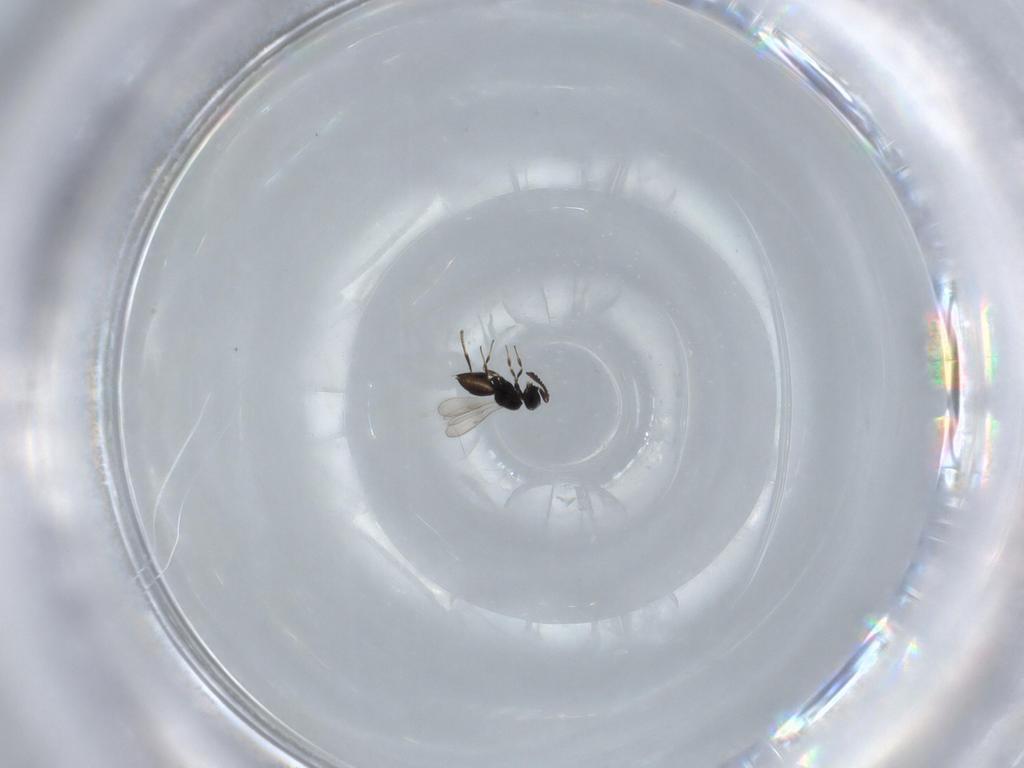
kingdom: Animalia
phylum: Arthropoda
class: Insecta
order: Hymenoptera
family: Scelionidae
